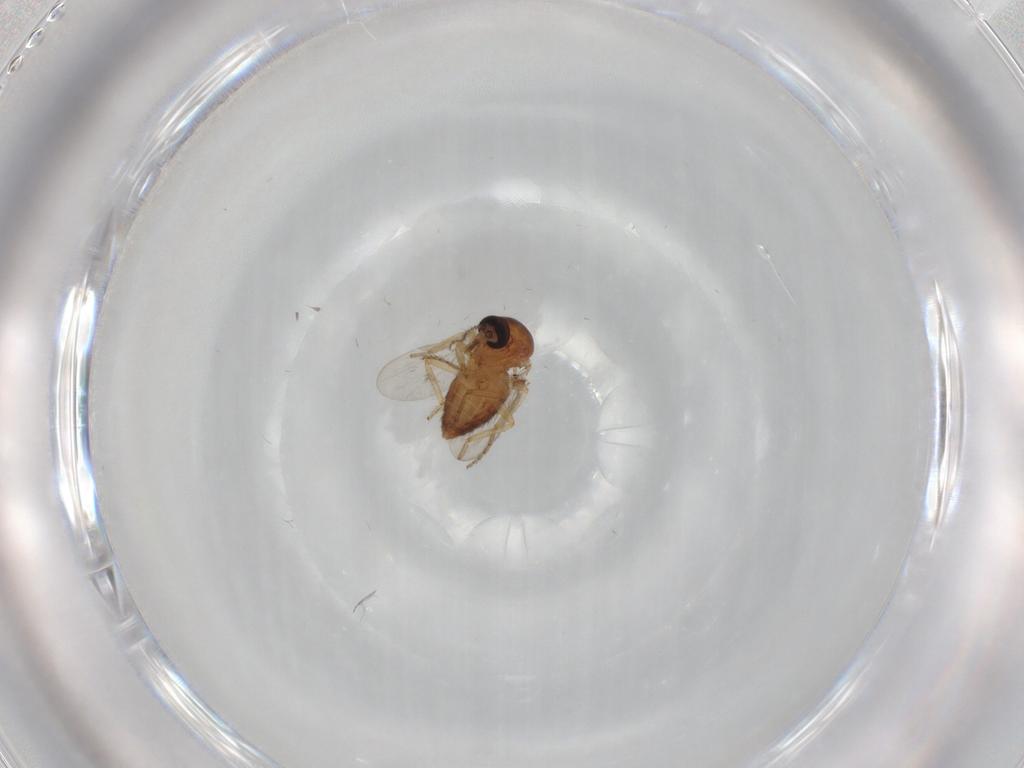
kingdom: Animalia
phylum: Arthropoda
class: Insecta
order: Diptera
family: Ceratopogonidae
